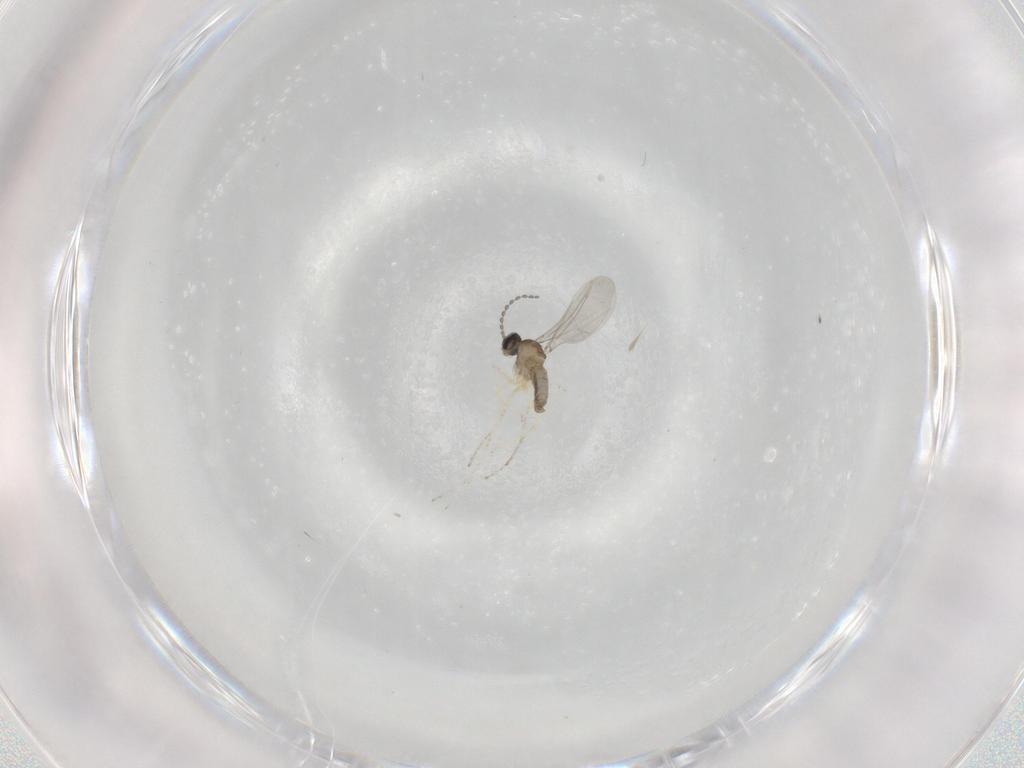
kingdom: Animalia
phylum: Arthropoda
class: Insecta
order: Diptera
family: Cecidomyiidae
